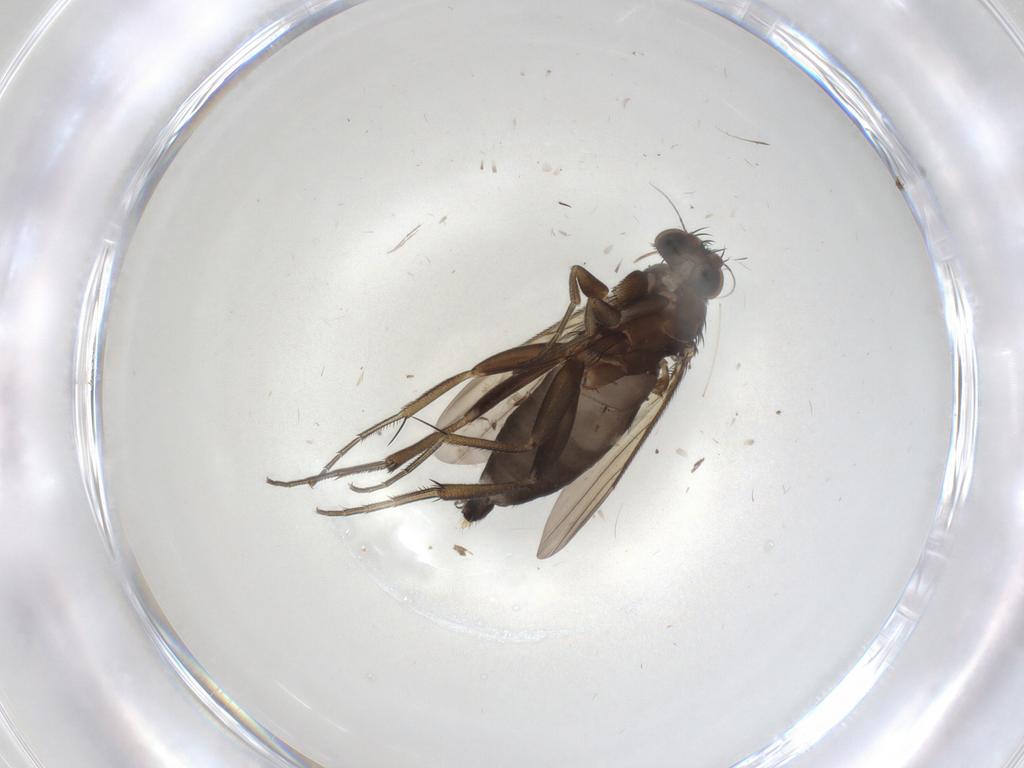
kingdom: Animalia
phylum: Arthropoda
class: Insecta
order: Diptera
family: Phoridae
